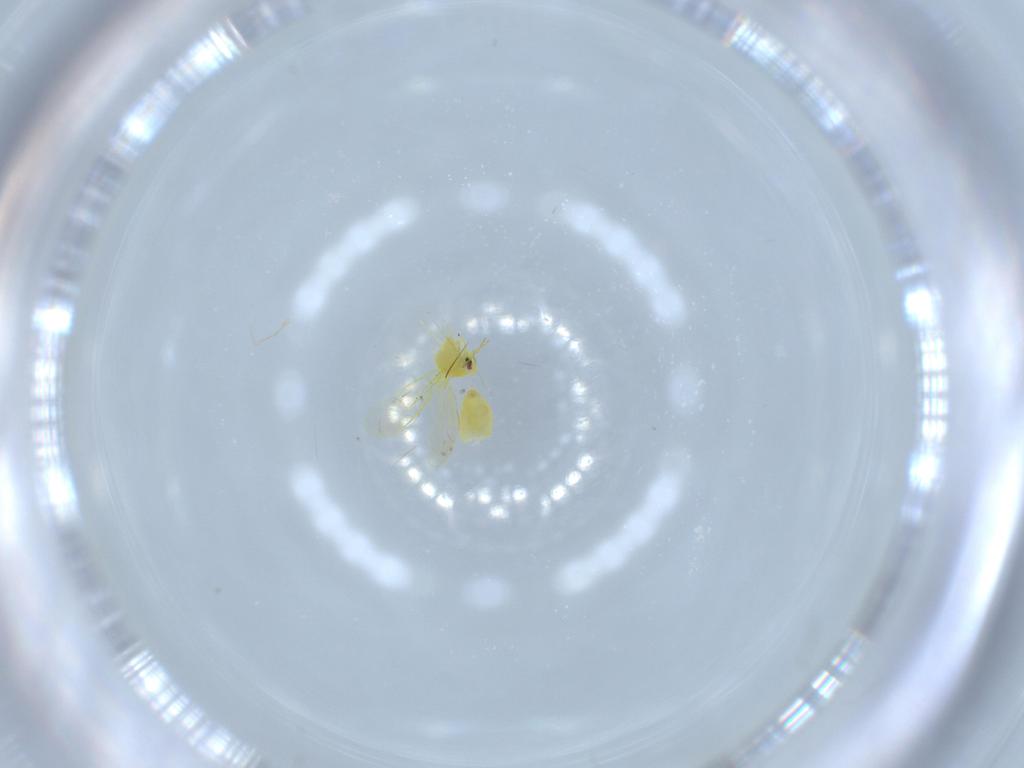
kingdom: Animalia
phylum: Arthropoda
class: Insecta
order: Hemiptera
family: Aleyrodidae
